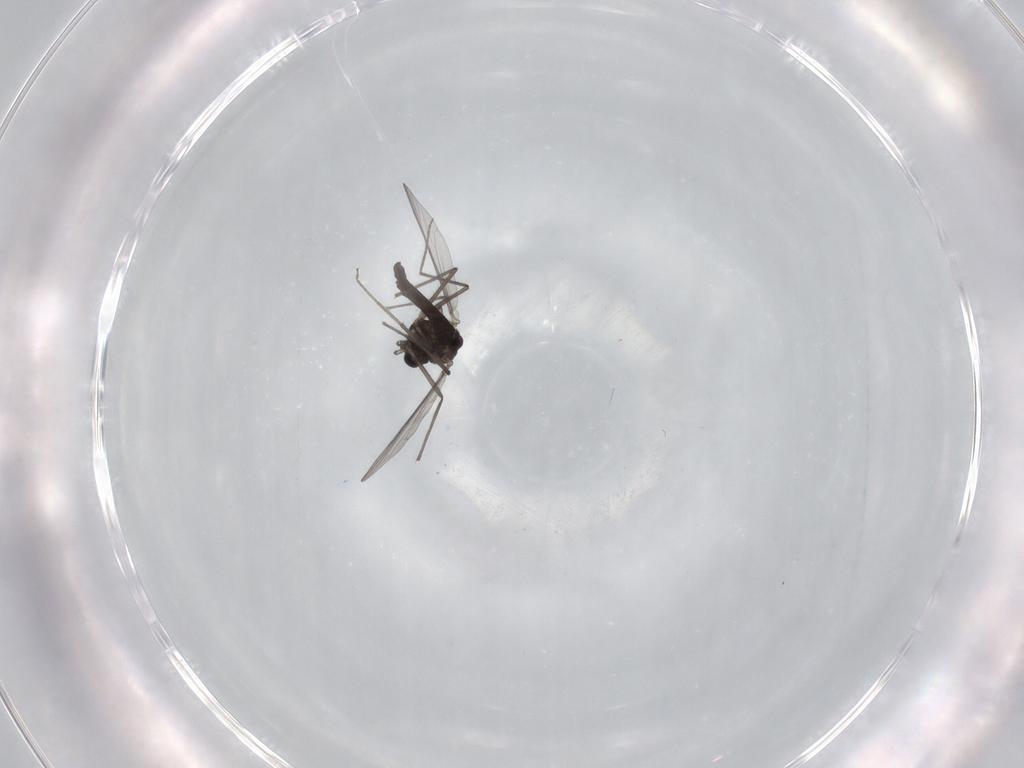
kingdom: Animalia
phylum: Arthropoda
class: Insecta
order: Diptera
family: Chironomidae
